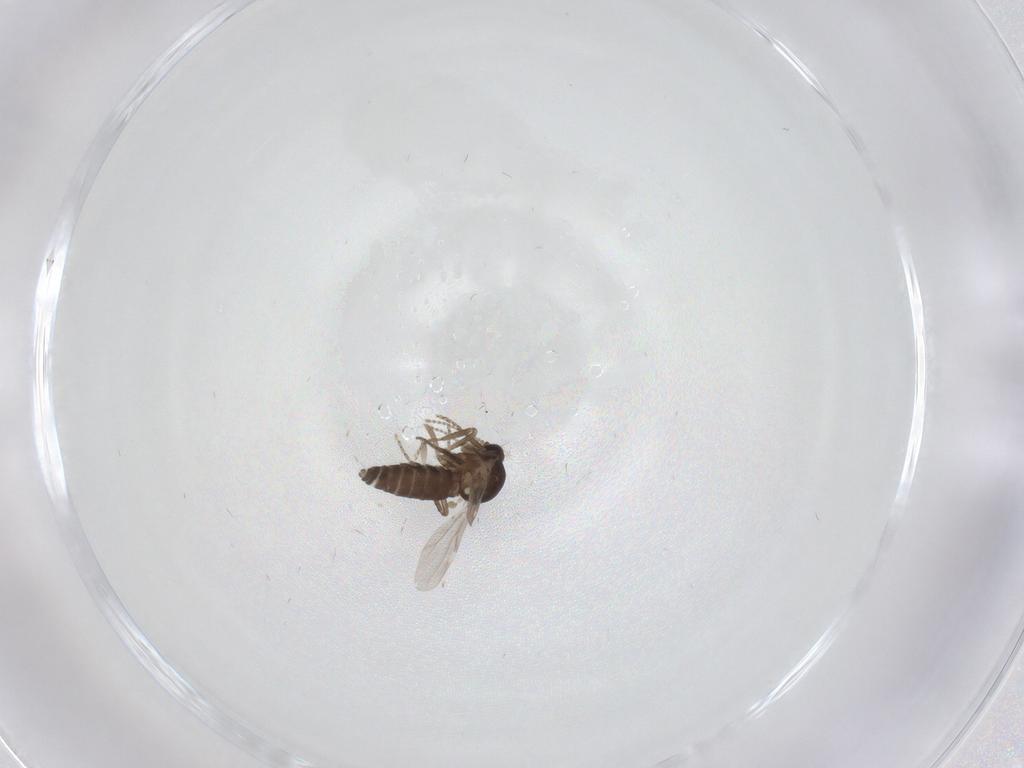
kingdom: Animalia
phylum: Arthropoda
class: Insecta
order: Diptera
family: Ceratopogonidae
